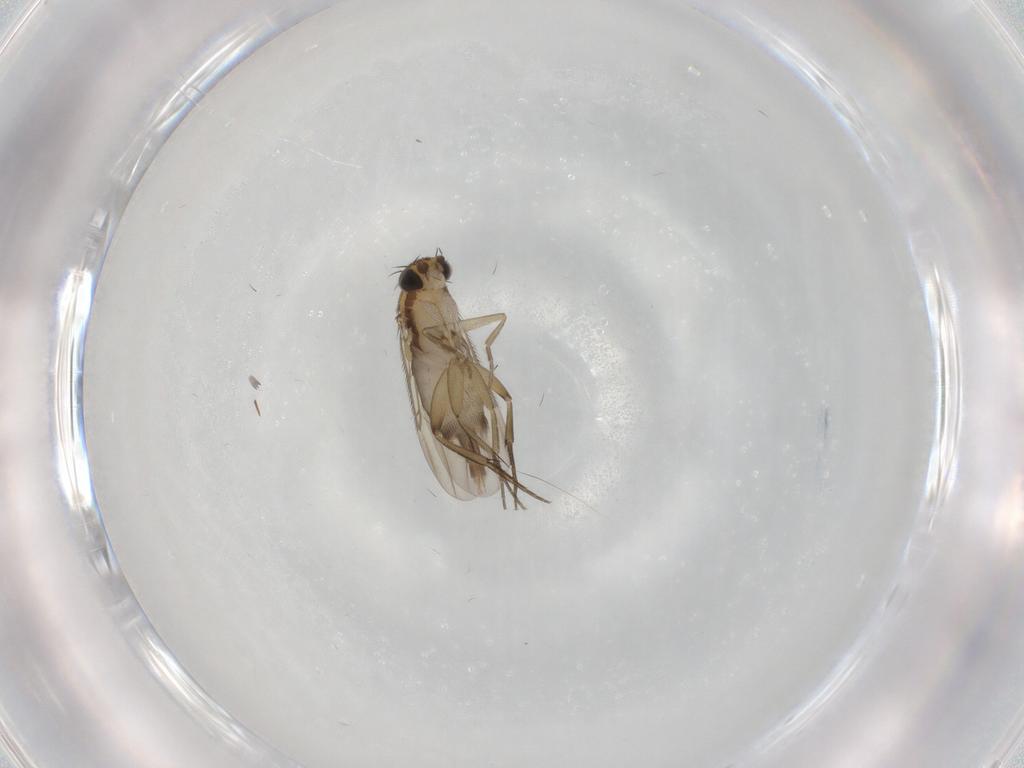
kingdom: Animalia
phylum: Arthropoda
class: Insecta
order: Diptera
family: Phoridae
